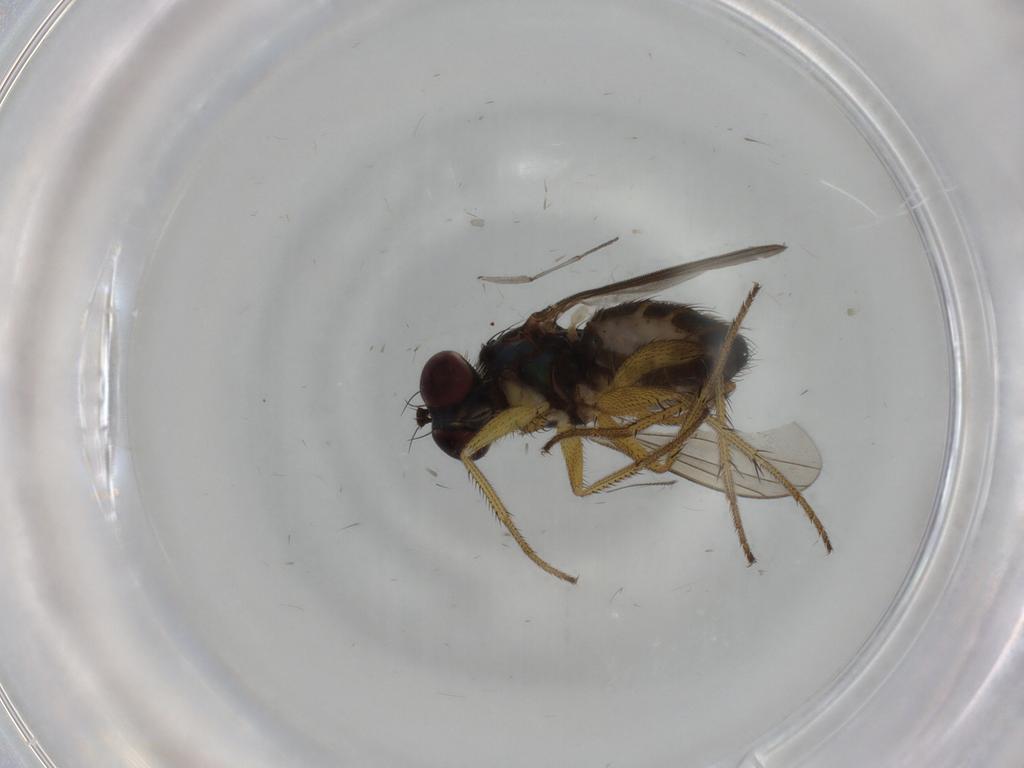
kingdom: Animalia
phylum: Arthropoda
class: Insecta
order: Diptera
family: Dolichopodidae
